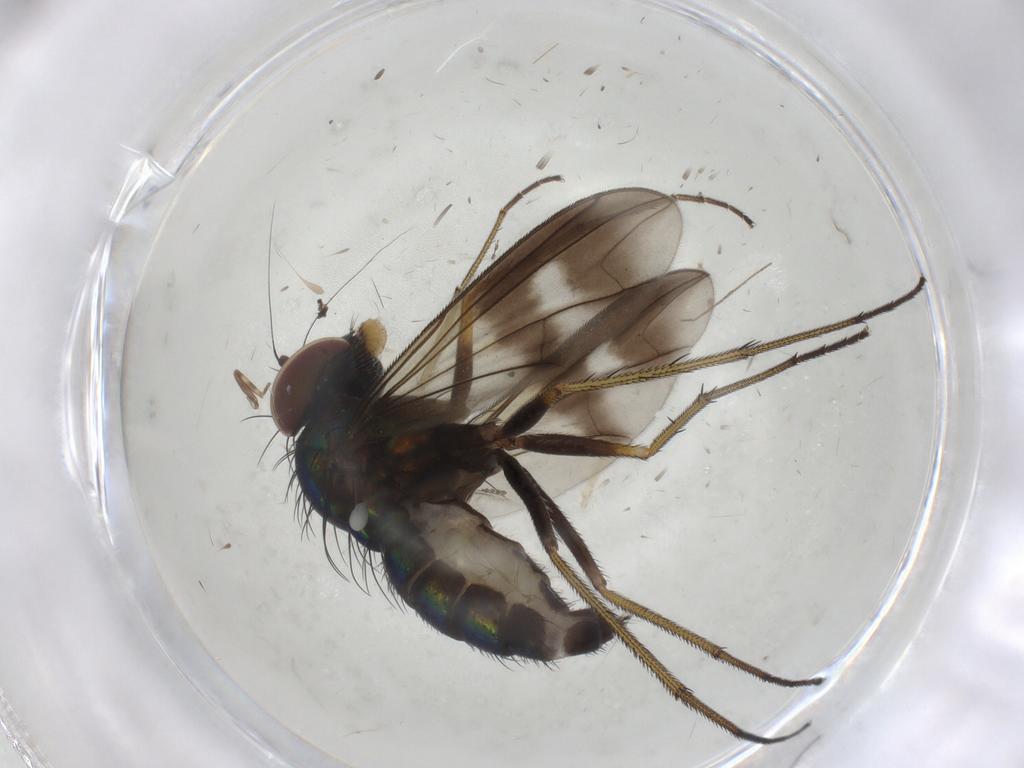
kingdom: Animalia
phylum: Arthropoda
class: Insecta
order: Diptera
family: Dolichopodidae
